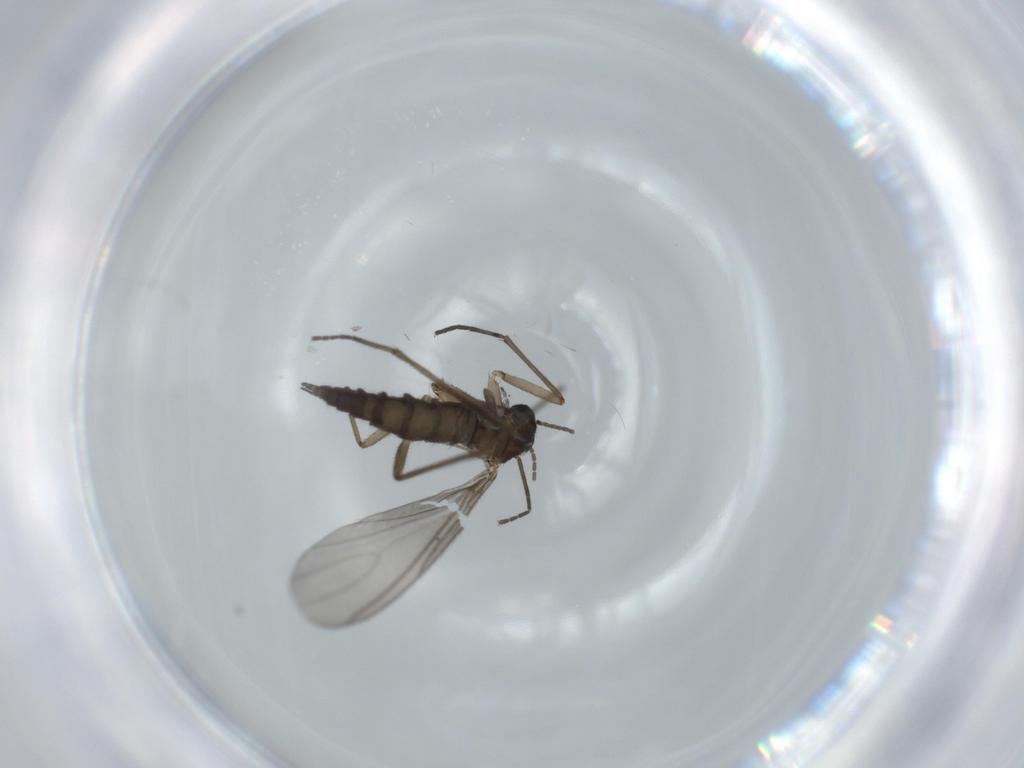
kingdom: Animalia
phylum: Arthropoda
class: Insecta
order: Diptera
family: Sciaridae
